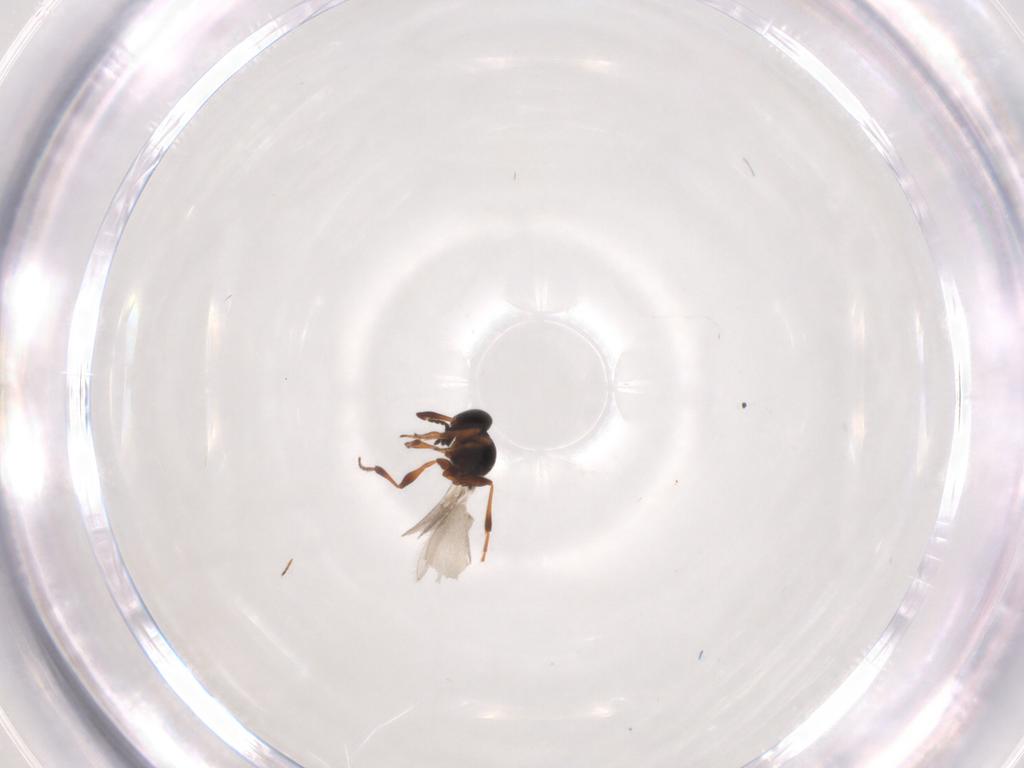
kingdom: Animalia
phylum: Arthropoda
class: Insecta
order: Hymenoptera
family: Platygastridae
